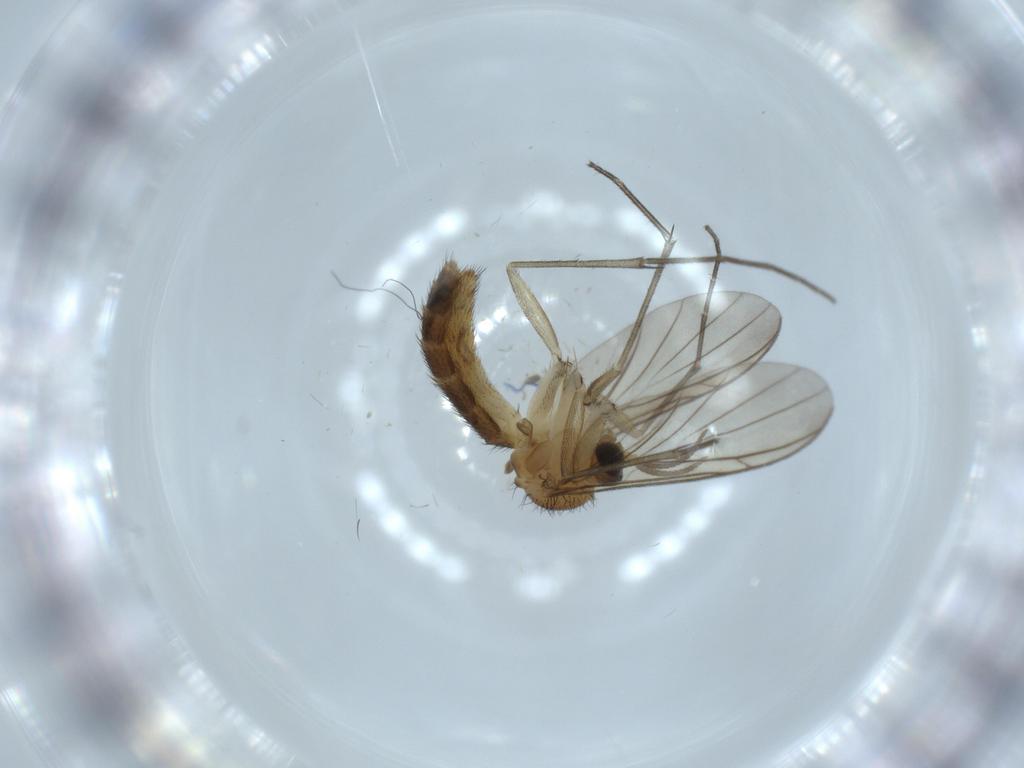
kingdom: Animalia
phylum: Arthropoda
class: Insecta
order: Diptera
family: Keroplatidae
